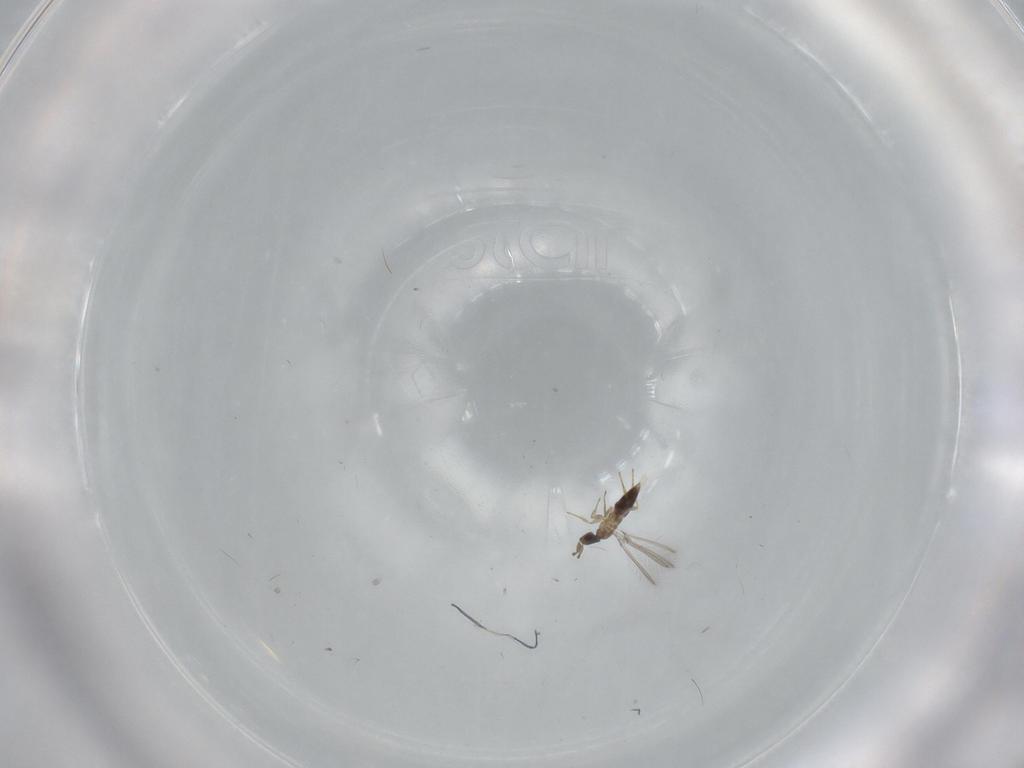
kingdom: Animalia
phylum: Arthropoda
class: Insecta
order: Hymenoptera
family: Mymaridae
